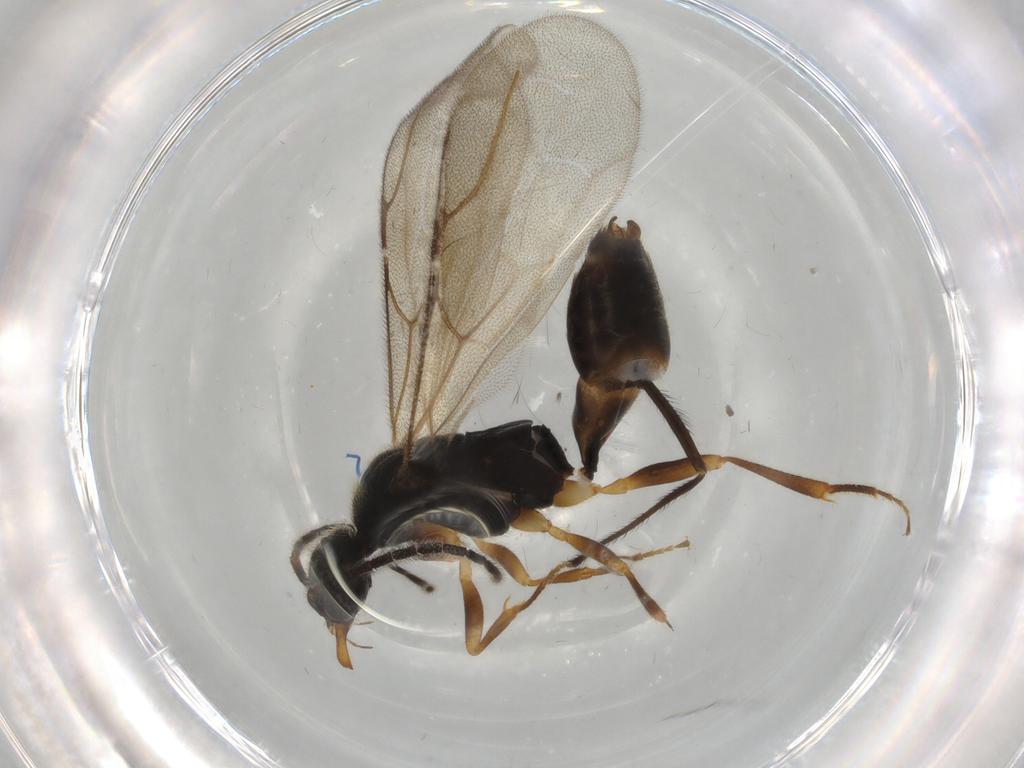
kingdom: Animalia
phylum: Arthropoda
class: Insecta
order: Hymenoptera
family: Bethylidae
